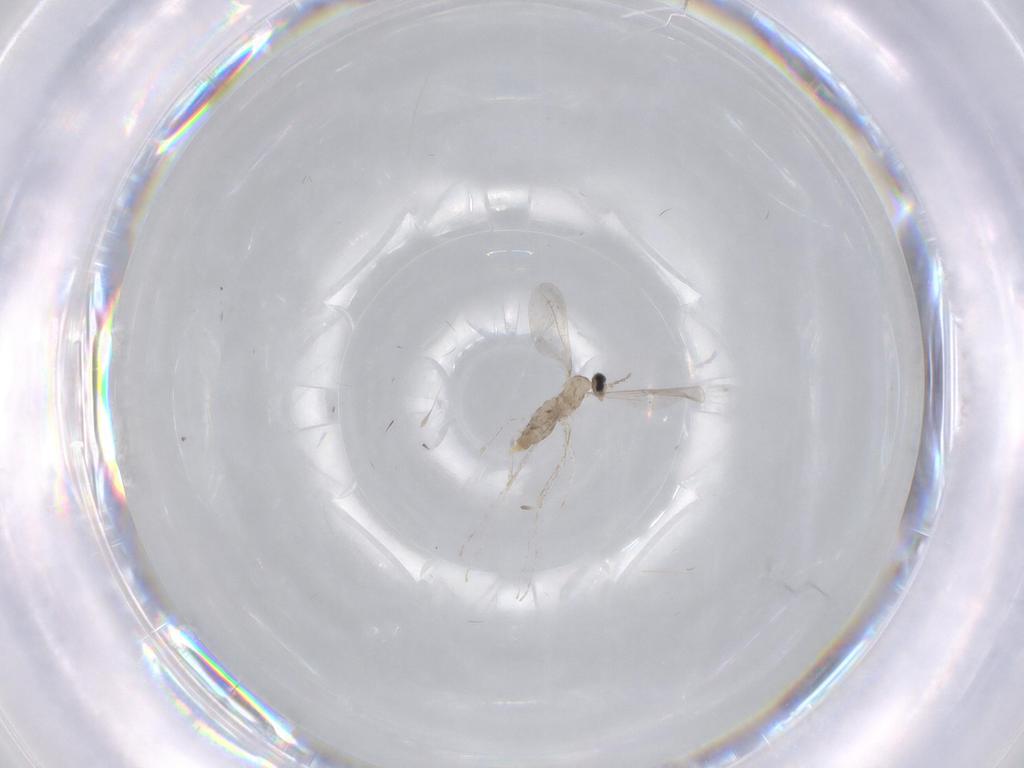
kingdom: Animalia
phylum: Arthropoda
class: Insecta
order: Diptera
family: Cecidomyiidae
